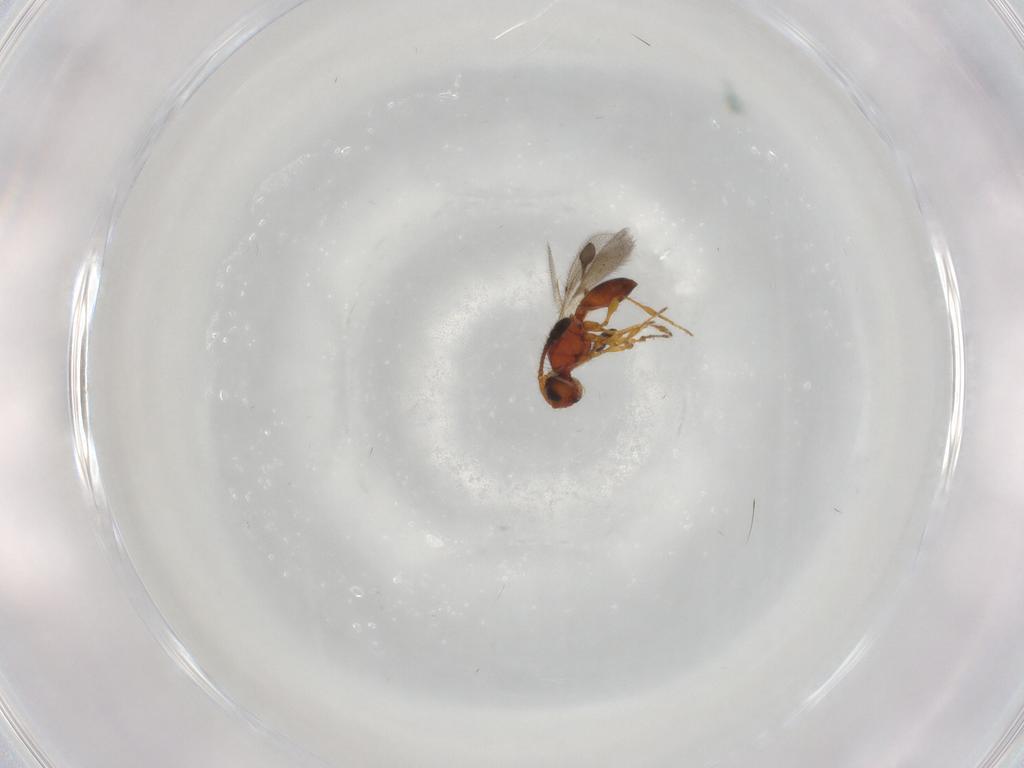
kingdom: Animalia
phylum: Arthropoda
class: Insecta
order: Hymenoptera
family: Diapriidae
